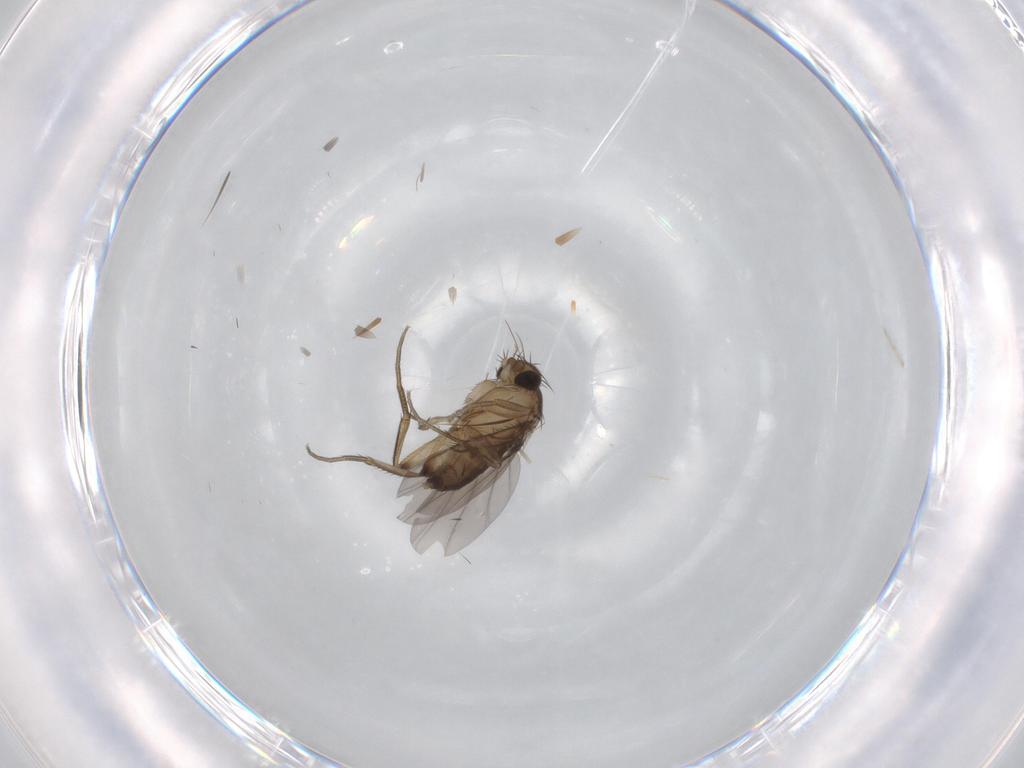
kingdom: Animalia
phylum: Arthropoda
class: Insecta
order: Diptera
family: Phoridae
